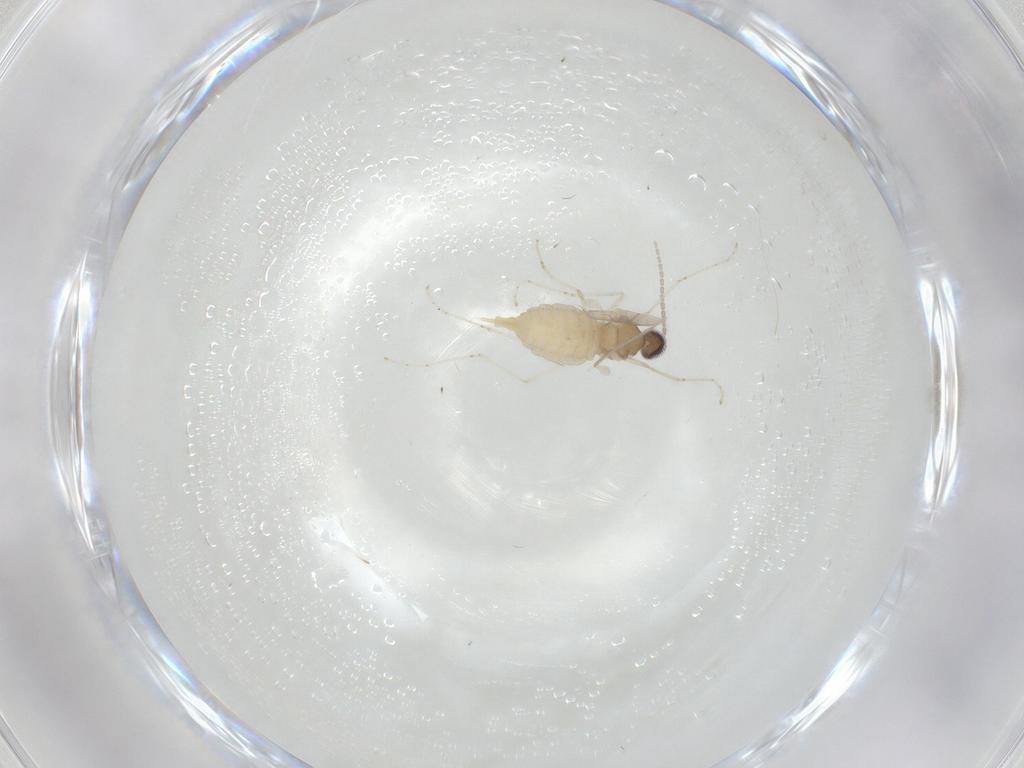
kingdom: Animalia
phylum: Arthropoda
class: Insecta
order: Diptera
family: Cecidomyiidae
